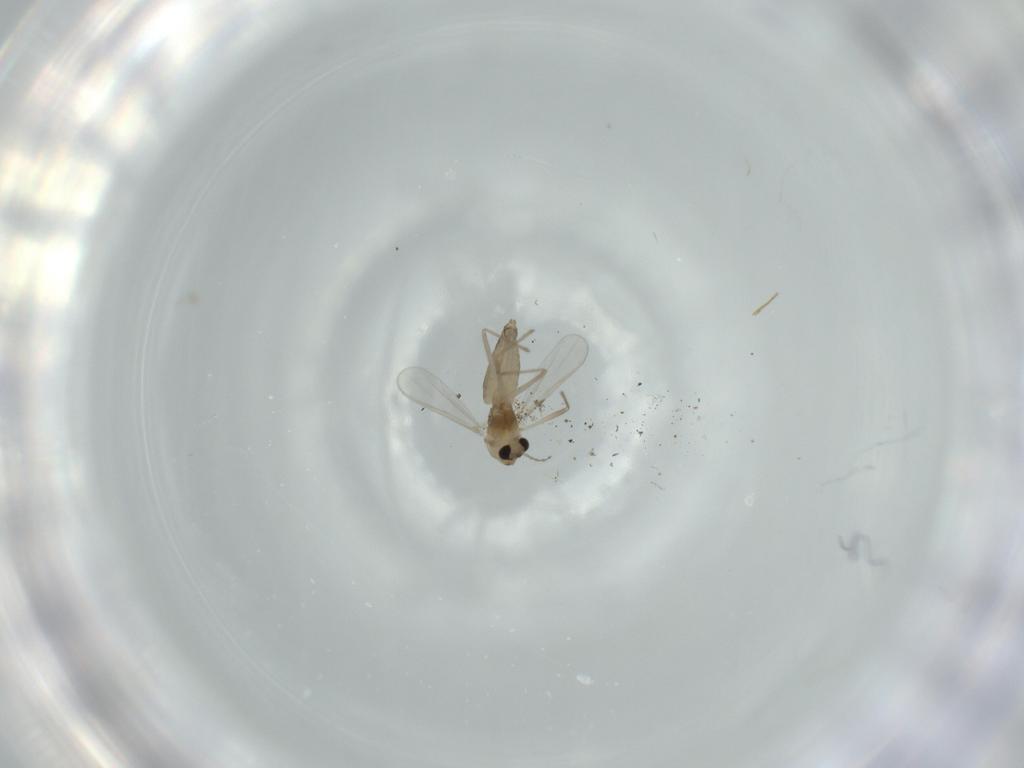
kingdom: Animalia
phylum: Arthropoda
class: Insecta
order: Diptera
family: Chironomidae
